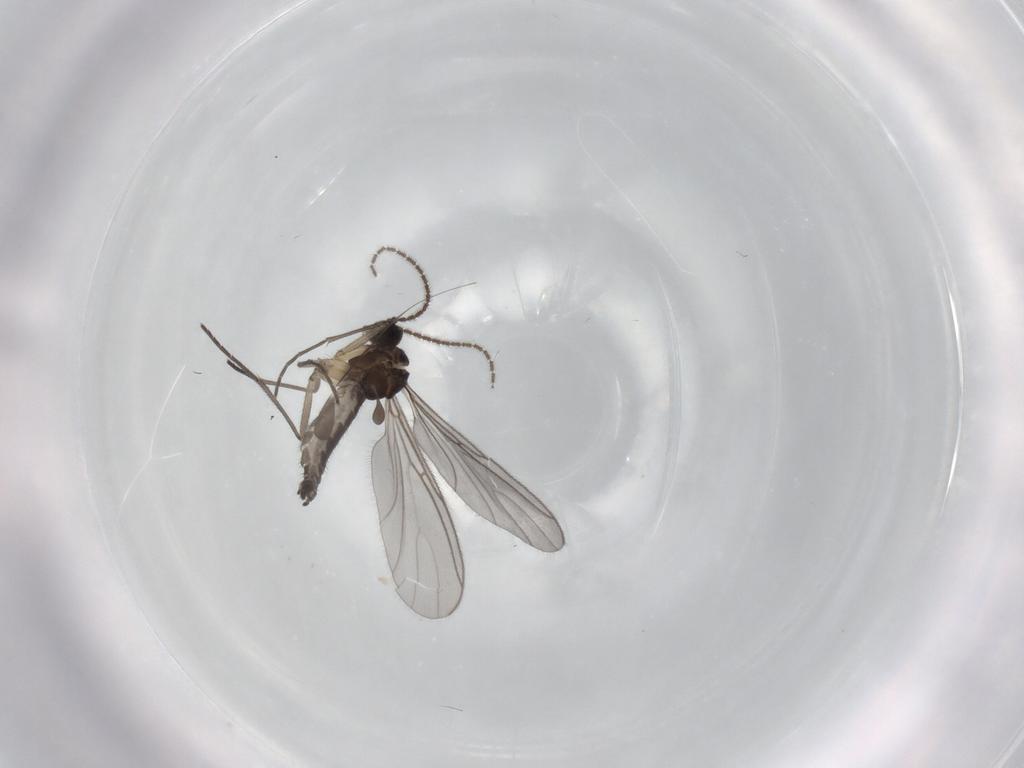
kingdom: Animalia
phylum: Arthropoda
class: Insecta
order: Diptera
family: Sciaridae
